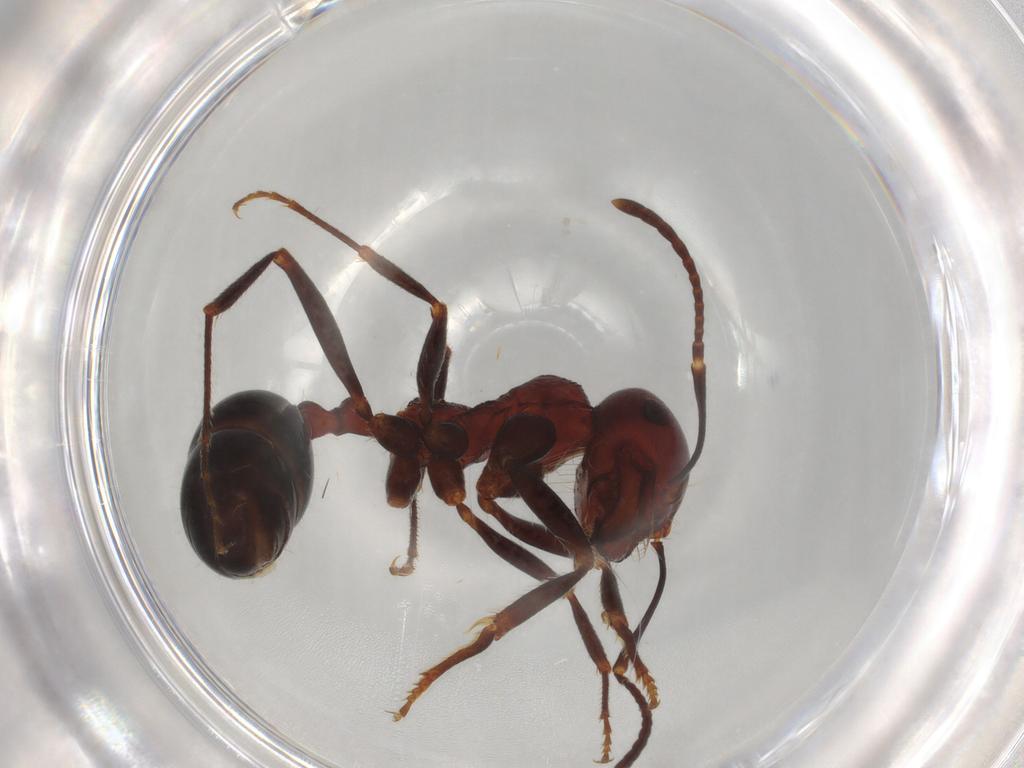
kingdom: Animalia
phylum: Arthropoda
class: Insecta
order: Hymenoptera
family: Formicidae
